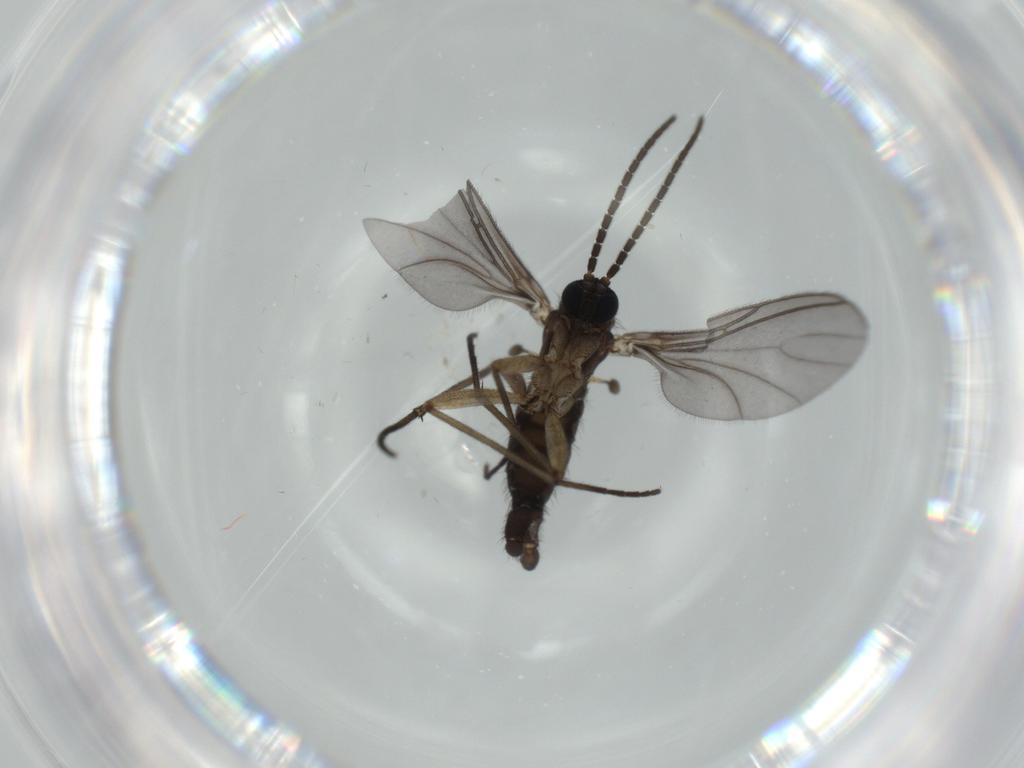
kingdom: Animalia
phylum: Arthropoda
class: Insecta
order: Diptera
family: Sciaridae
